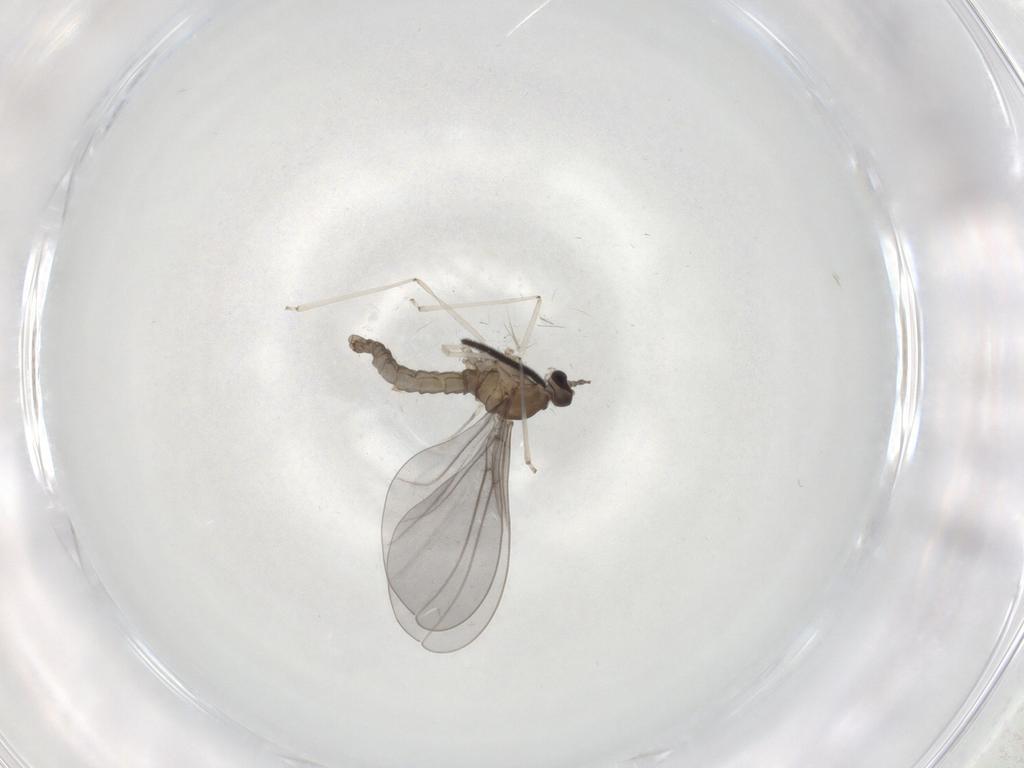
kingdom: Animalia
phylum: Arthropoda
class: Insecta
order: Diptera
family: Cecidomyiidae
